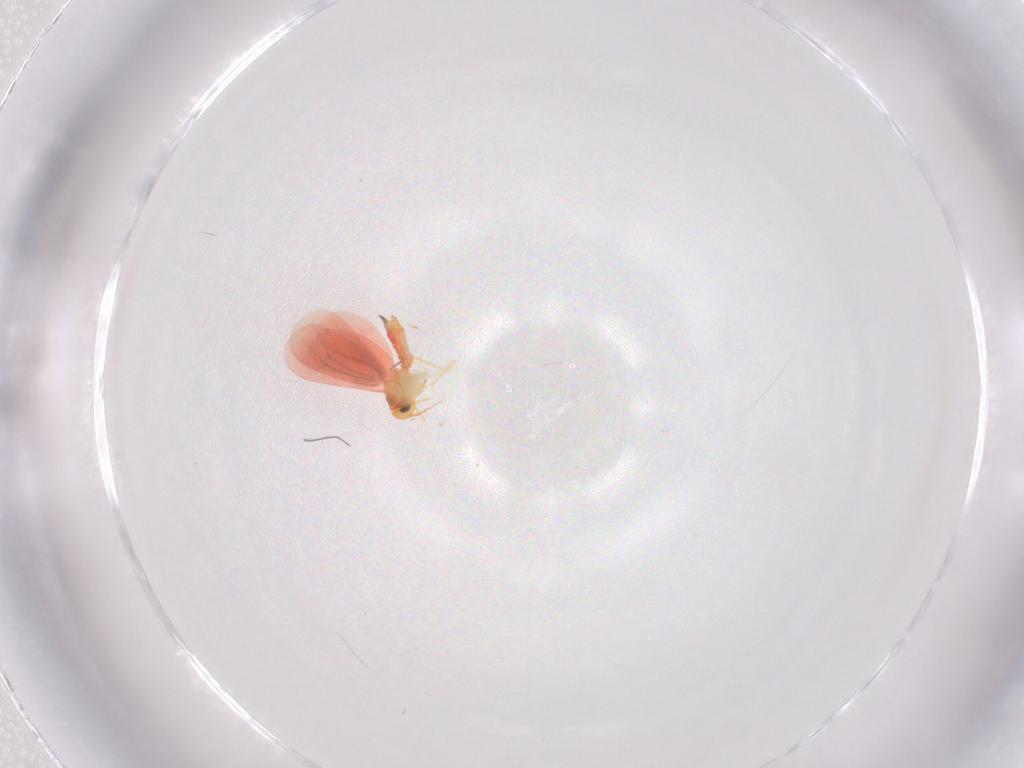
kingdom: Animalia
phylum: Arthropoda
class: Insecta
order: Hemiptera
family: Aleyrodidae
